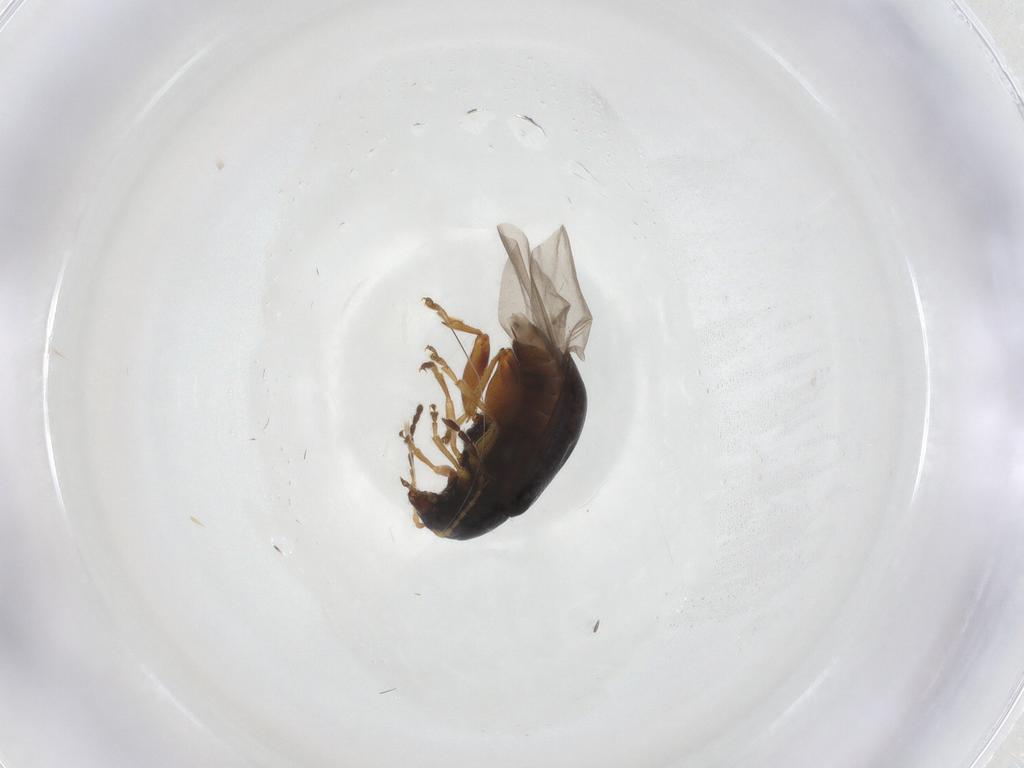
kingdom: Animalia
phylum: Arthropoda
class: Insecta
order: Coleoptera
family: Chrysomelidae
